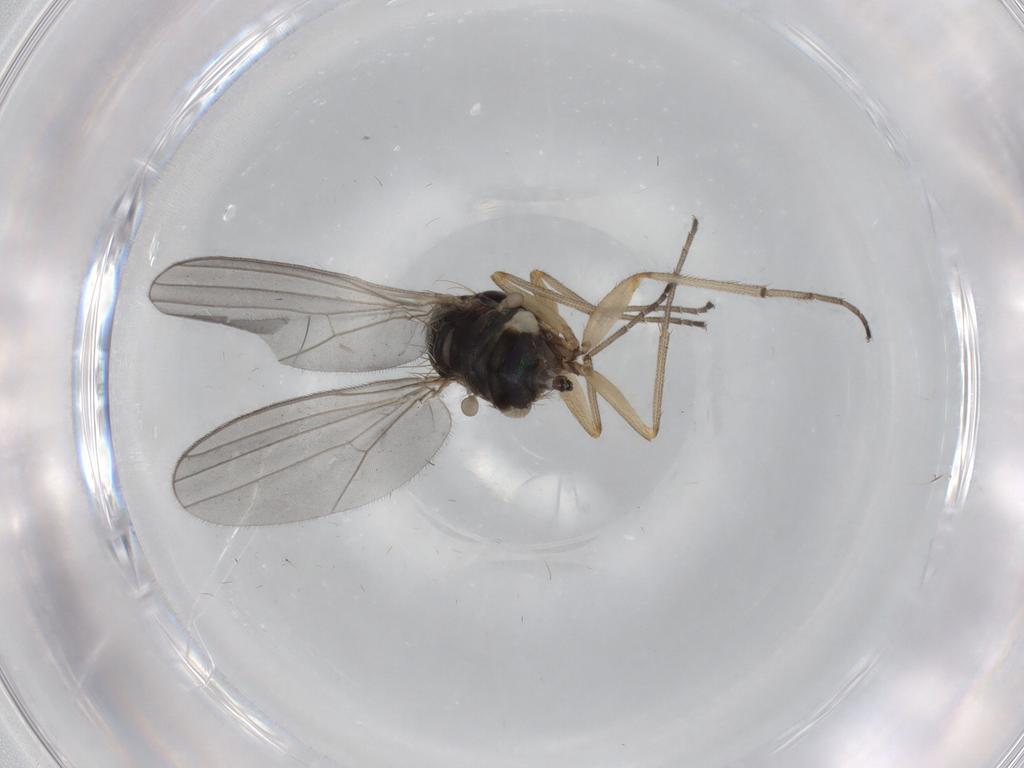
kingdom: Animalia
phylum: Arthropoda
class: Insecta
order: Diptera
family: Dolichopodidae
